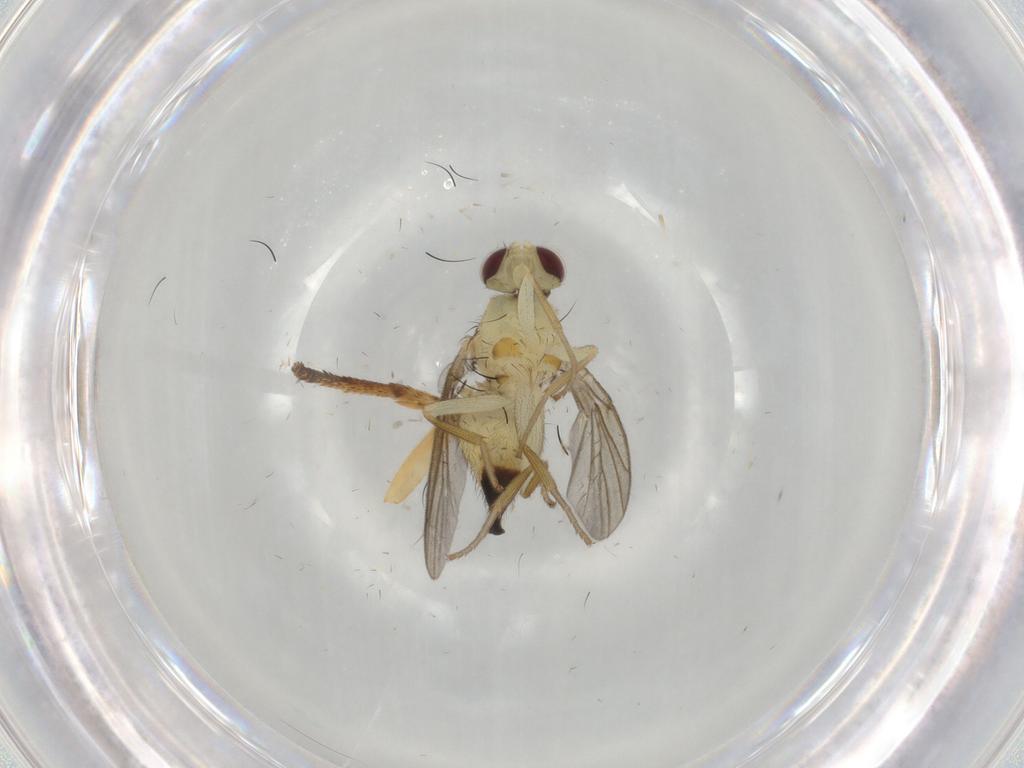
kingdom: Animalia
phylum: Arthropoda
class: Insecta
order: Diptera
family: Agromyzidae
